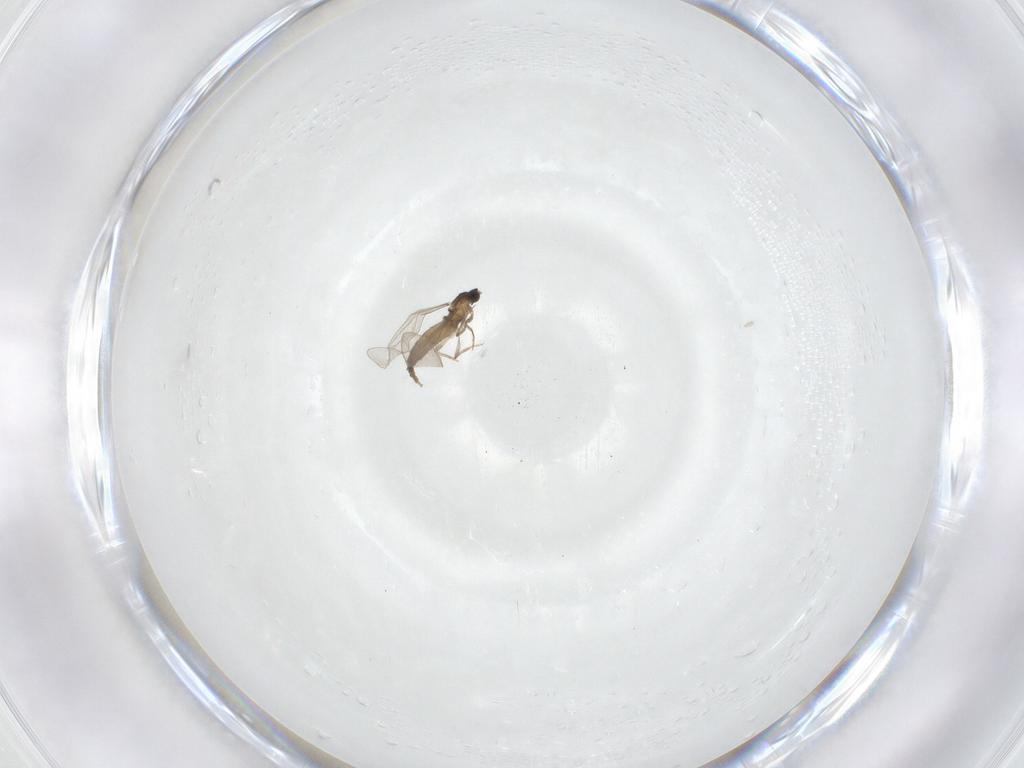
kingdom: Animalia
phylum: Arthropoda
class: Insecta
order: Diptera
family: Cecidomyiidae
